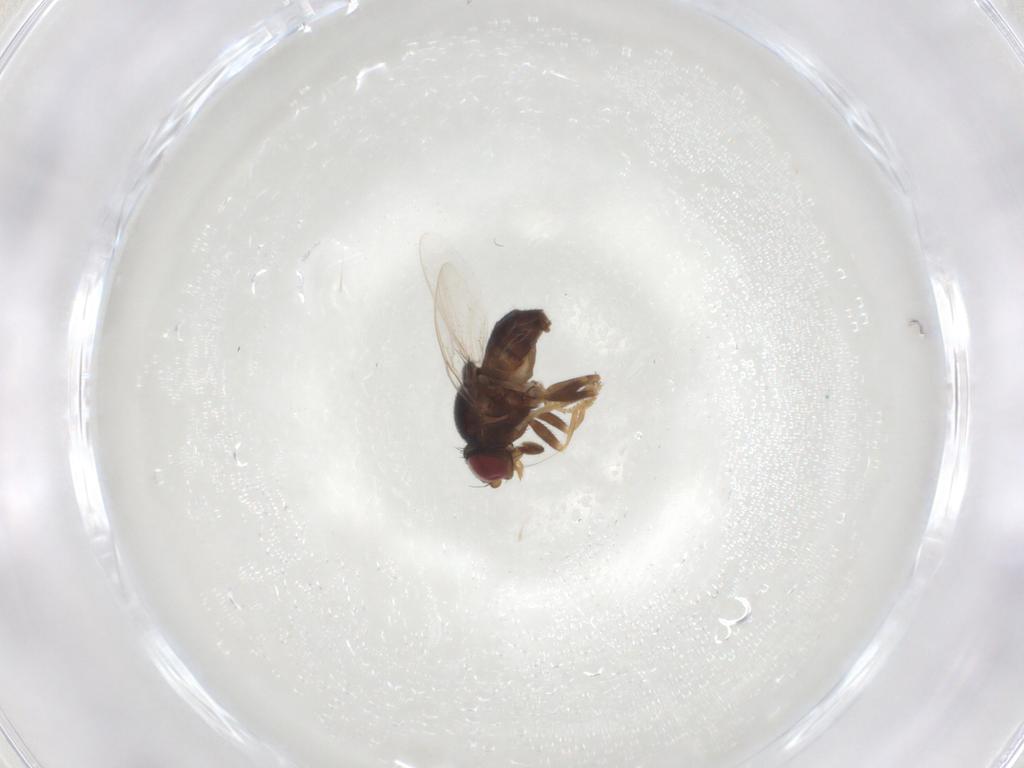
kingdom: Animalia
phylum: Arthropoda
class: Insecta
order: Diptera
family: Chloropidae
